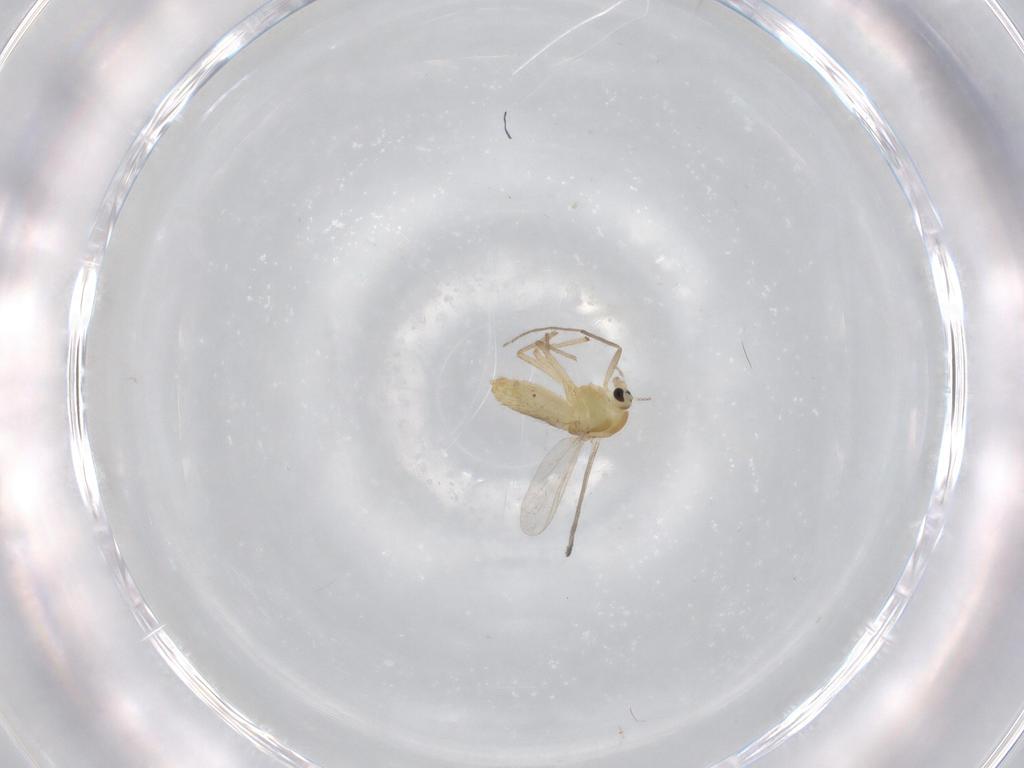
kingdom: Animalia
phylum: Arthropoda
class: Insecta
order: Diptera
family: Chironomidae
